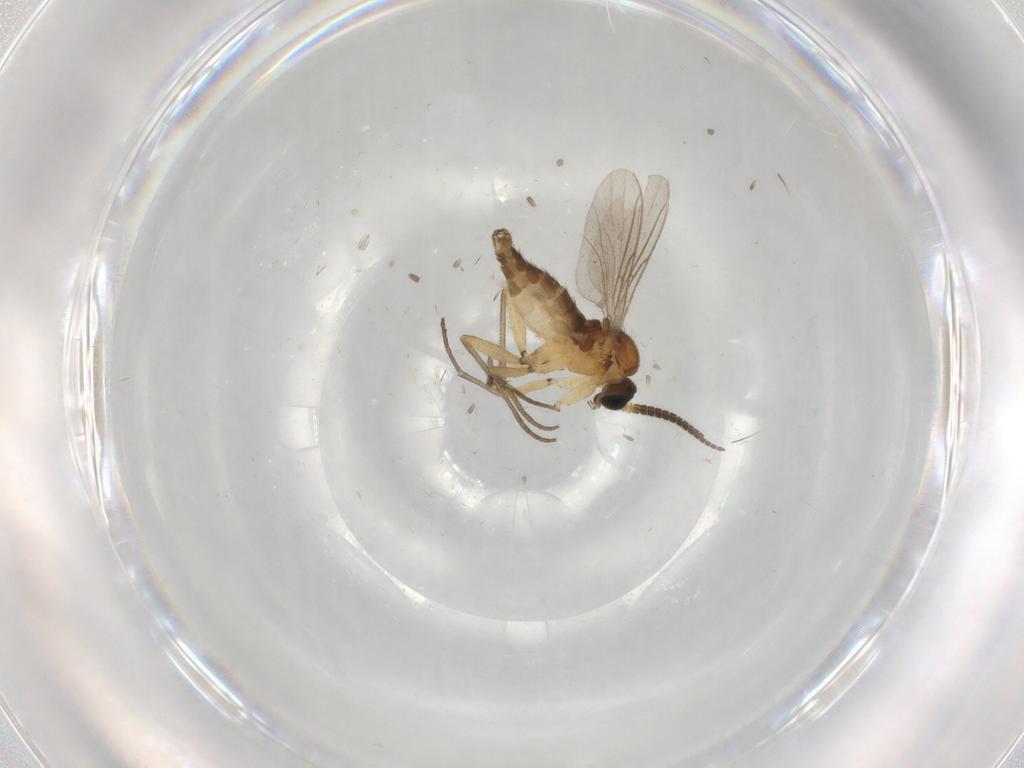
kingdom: Animalia
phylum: Arthropoda
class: Insecta
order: Diptera
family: Sciaridae
